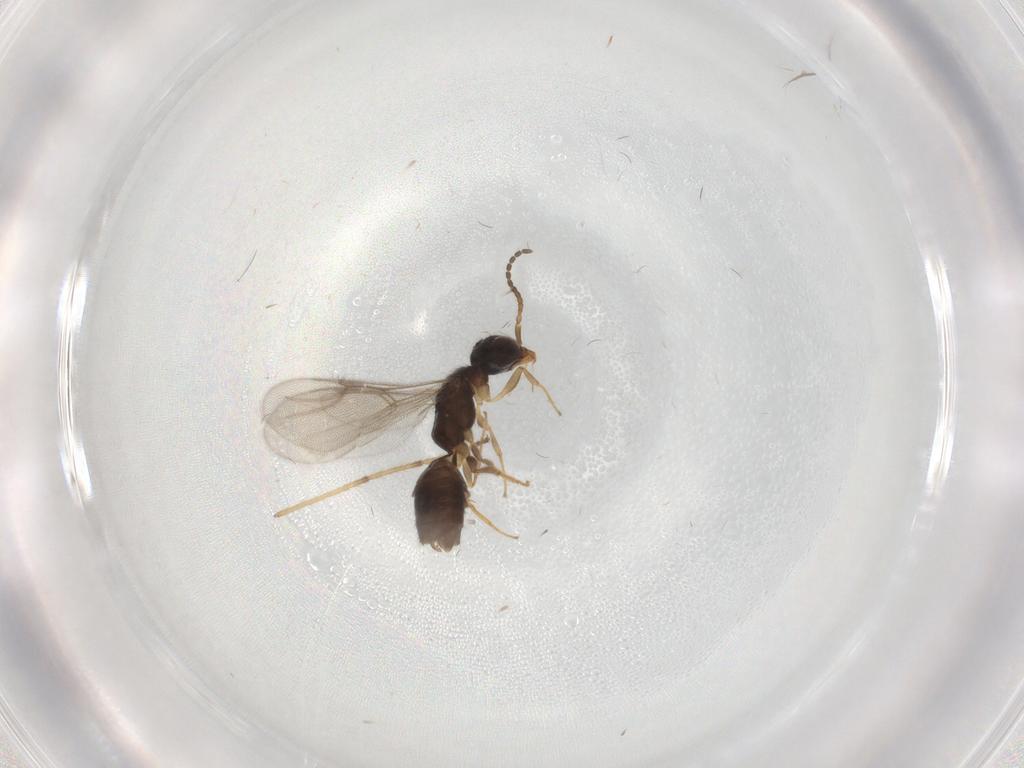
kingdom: Animalia
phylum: Arthropoda
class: Insecta
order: Hymenoptera
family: Bethylidae
